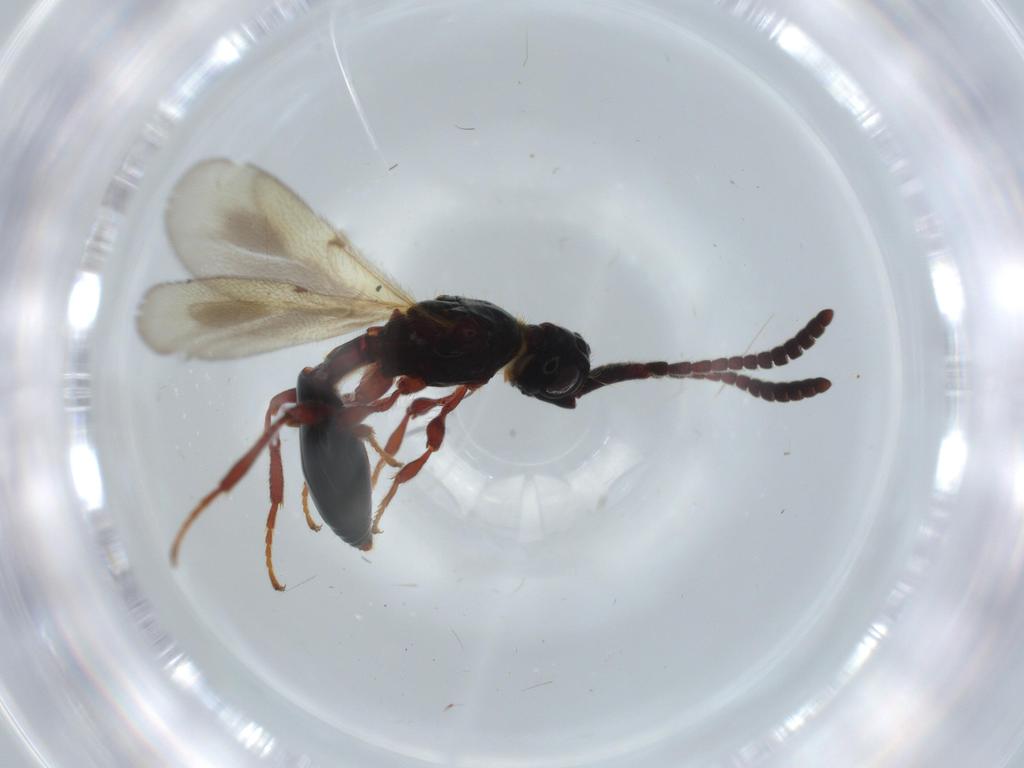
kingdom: Animalia
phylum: Arthropoda
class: Insecta
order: Hymenoptera
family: Diapriidae
